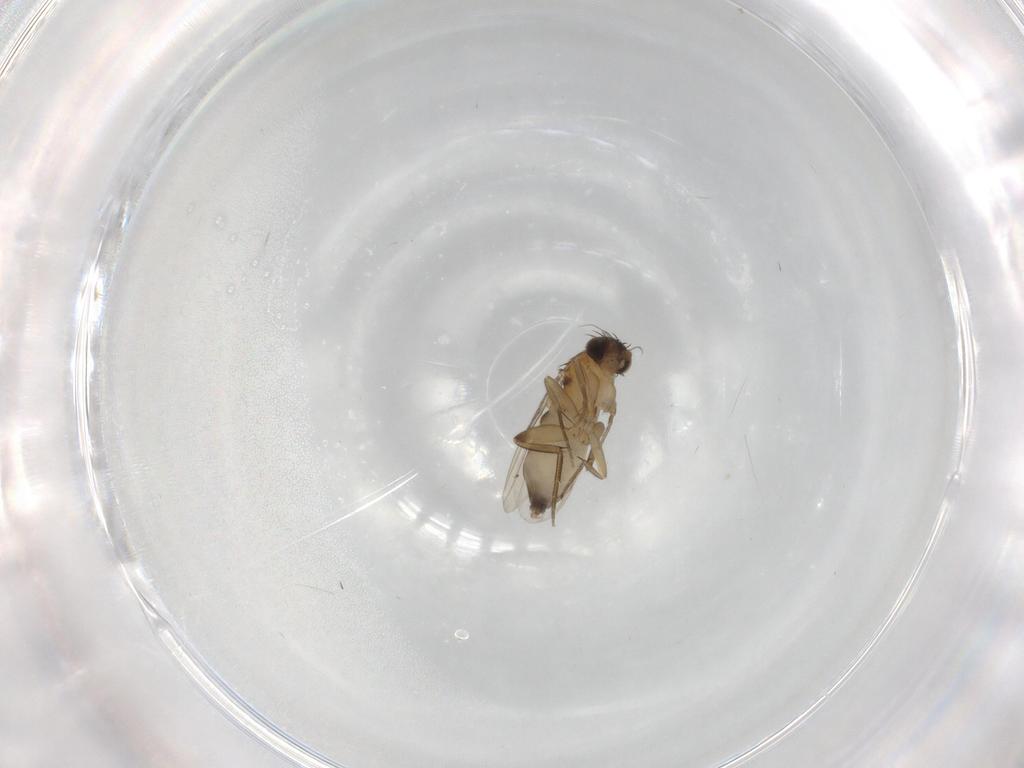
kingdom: Animalia
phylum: Arthropoda
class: Insecta
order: Diptera
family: Phoridae
